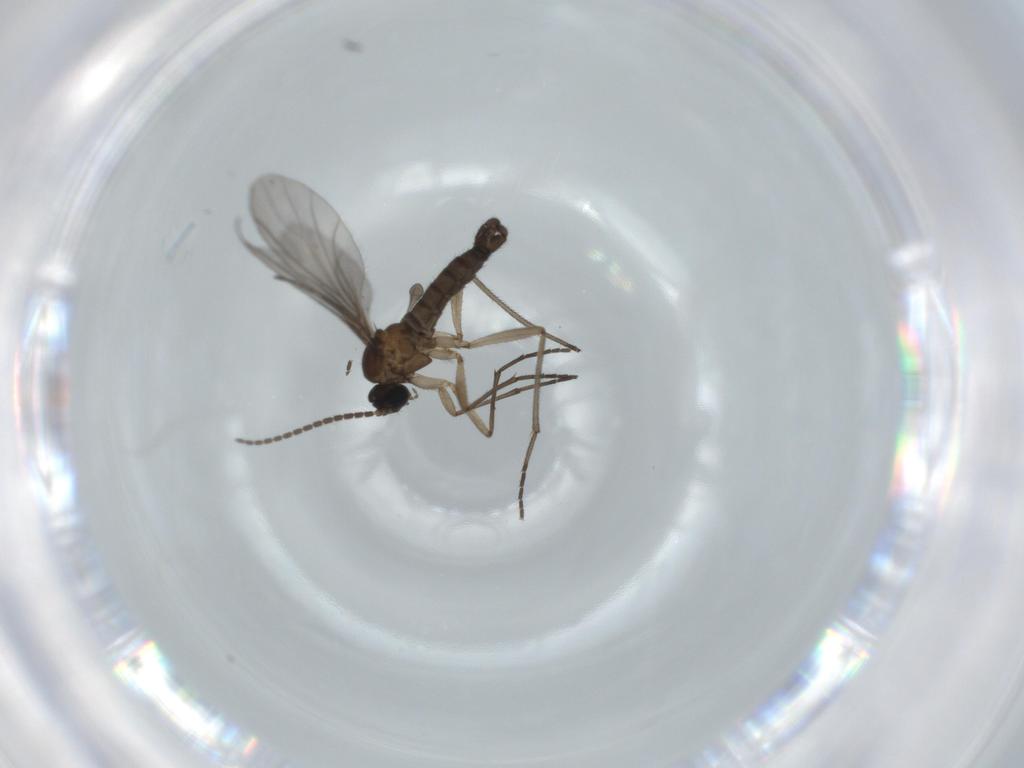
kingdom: Animalia
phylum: Arthropoda
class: Insecta
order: Diptera
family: Sciaridae
